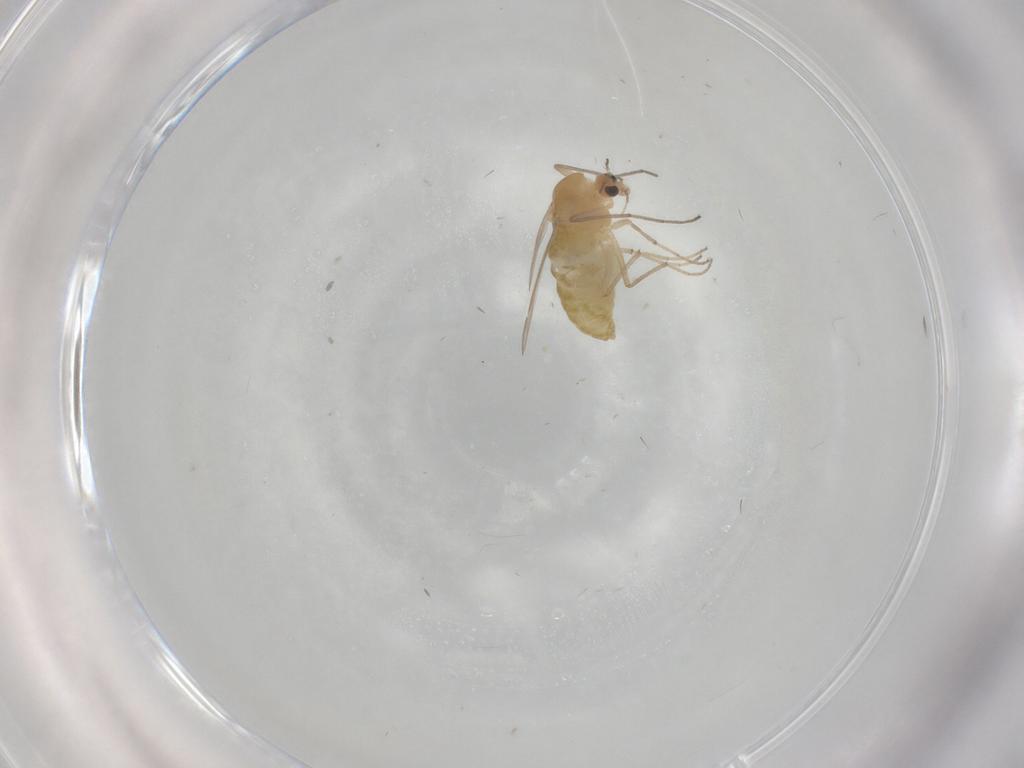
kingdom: Animalia
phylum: Arthropoda
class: Insecta
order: Diptera
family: Chironomidae
